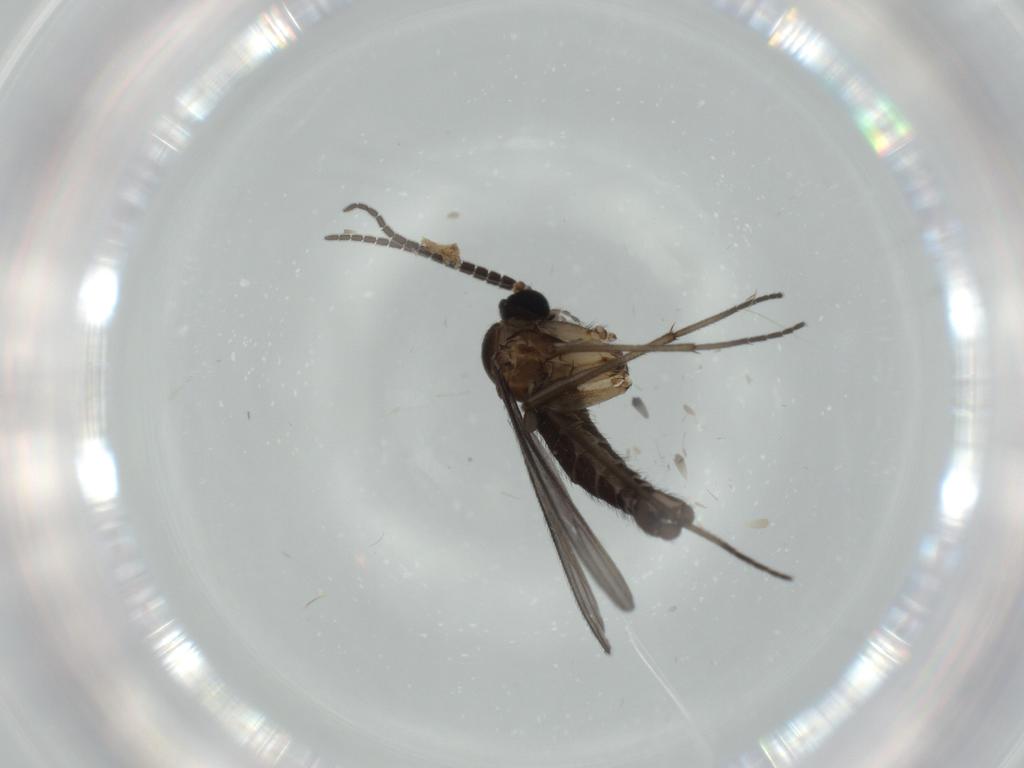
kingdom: Animalia
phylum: Arthropoda
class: Insecta
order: Diptera
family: Sciaridae
